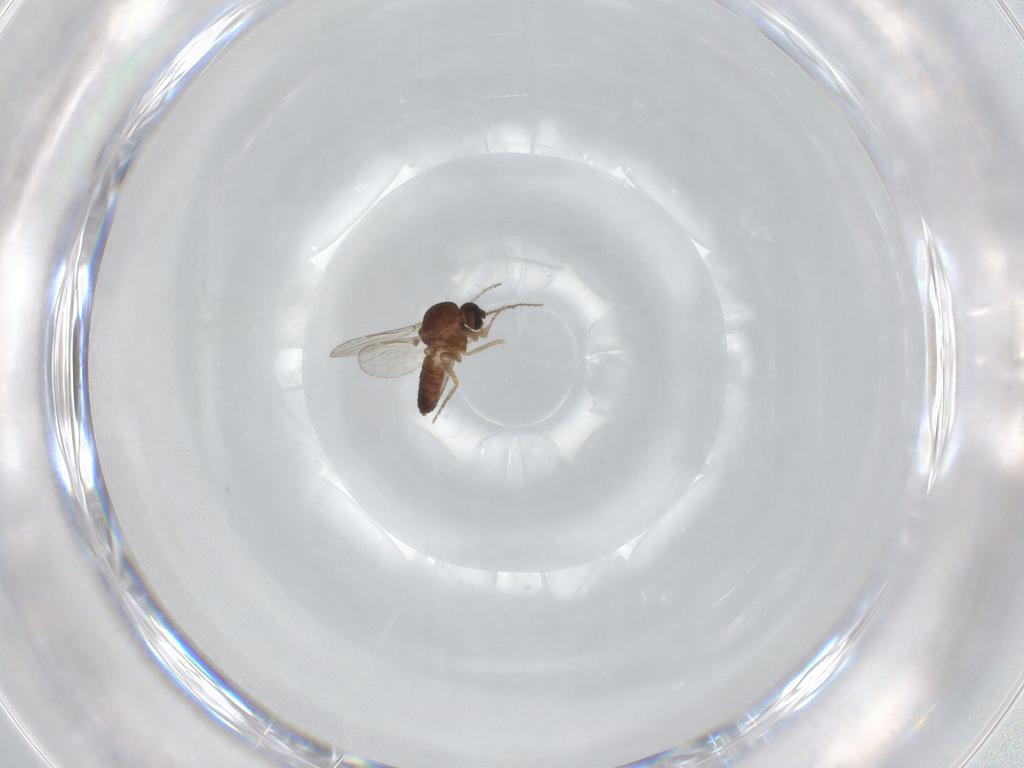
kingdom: Animalia
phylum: Arthropoda
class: Insecta
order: Diptera
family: Ceratopogonidae
